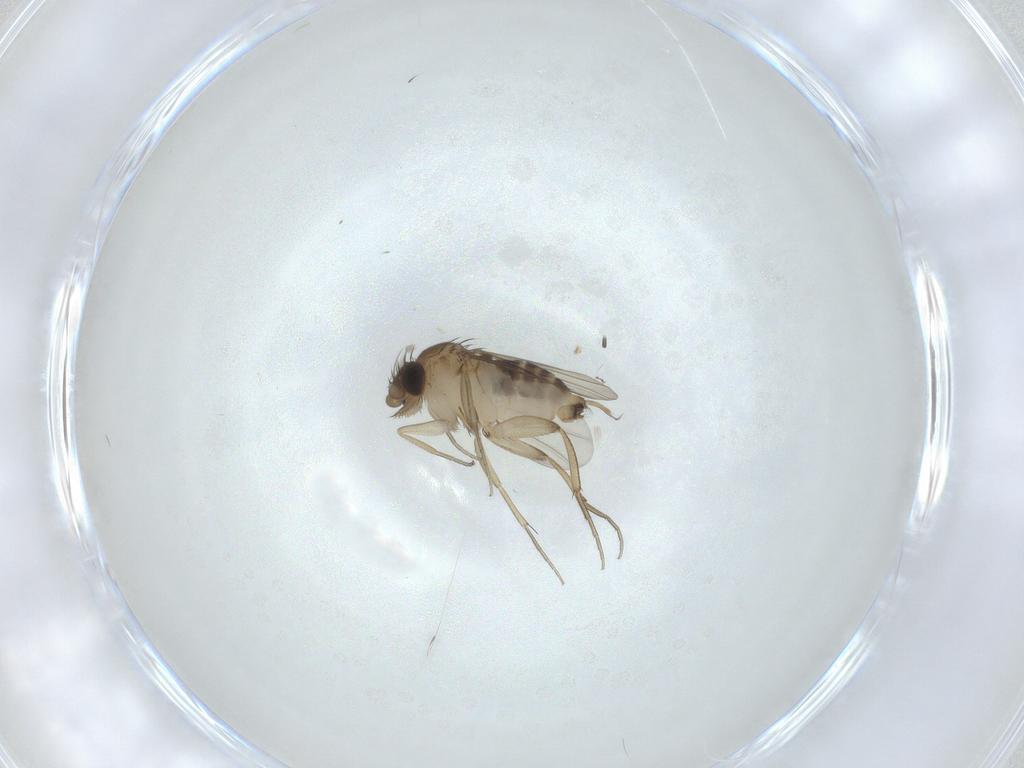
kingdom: Animalia
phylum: Arthropoda
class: Insecta
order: Diptera
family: Phoridae
